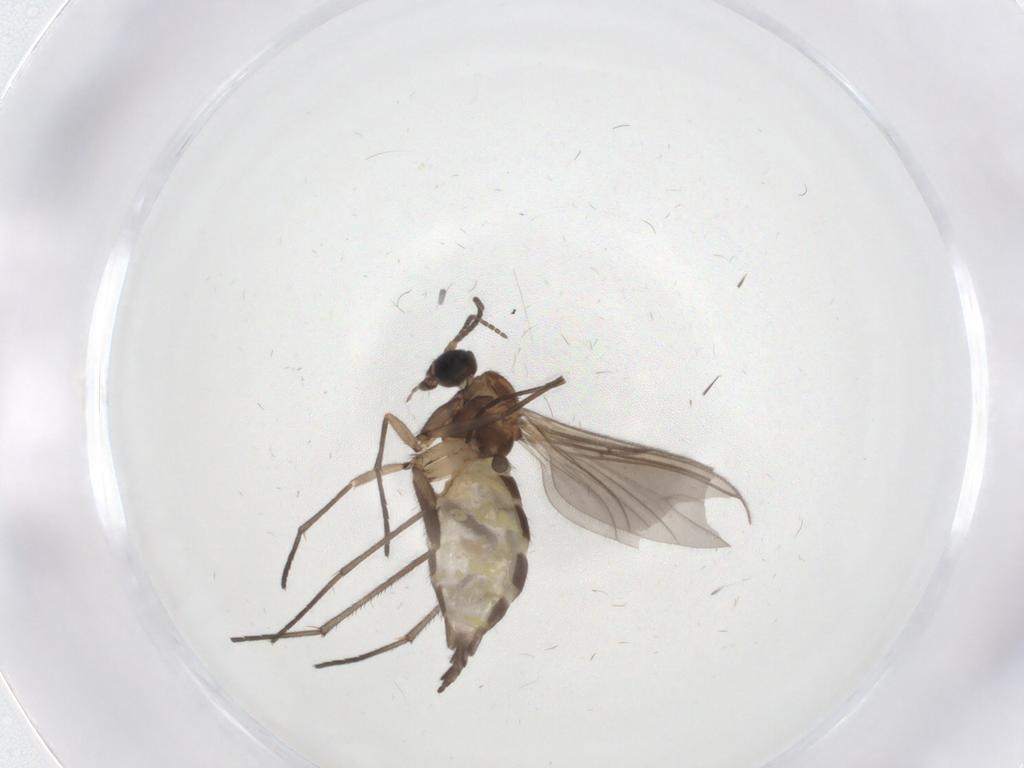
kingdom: Animalia
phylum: Arthropoda
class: Insecta
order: Diptera
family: Sciaridae
